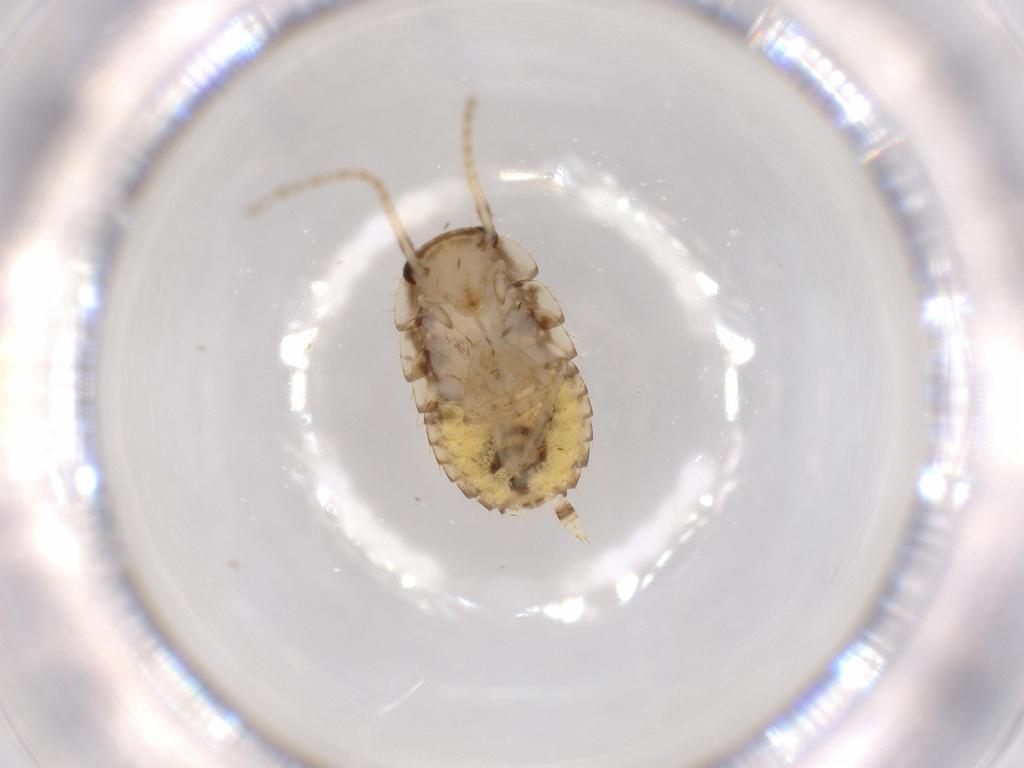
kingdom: Animalia
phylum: Arthropoda
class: Insecta
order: Blattodea
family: Ectobiidae
